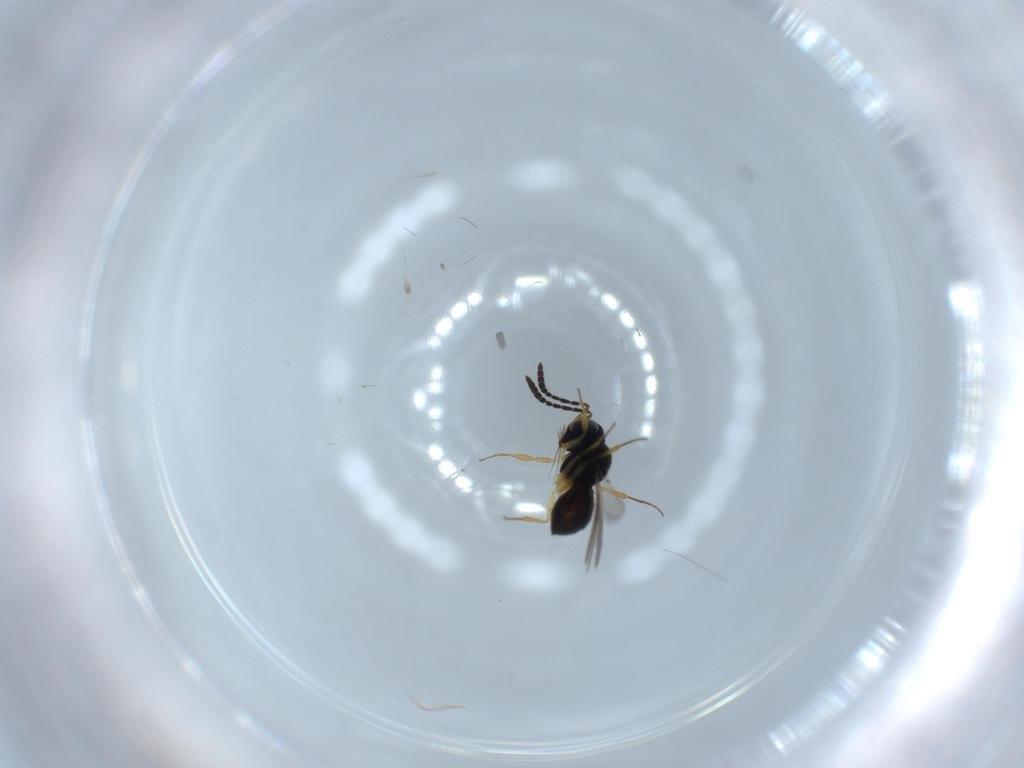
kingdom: Animalia
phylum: Arthropoda
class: Insecta
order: Hymenoptera
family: Scelionidae
